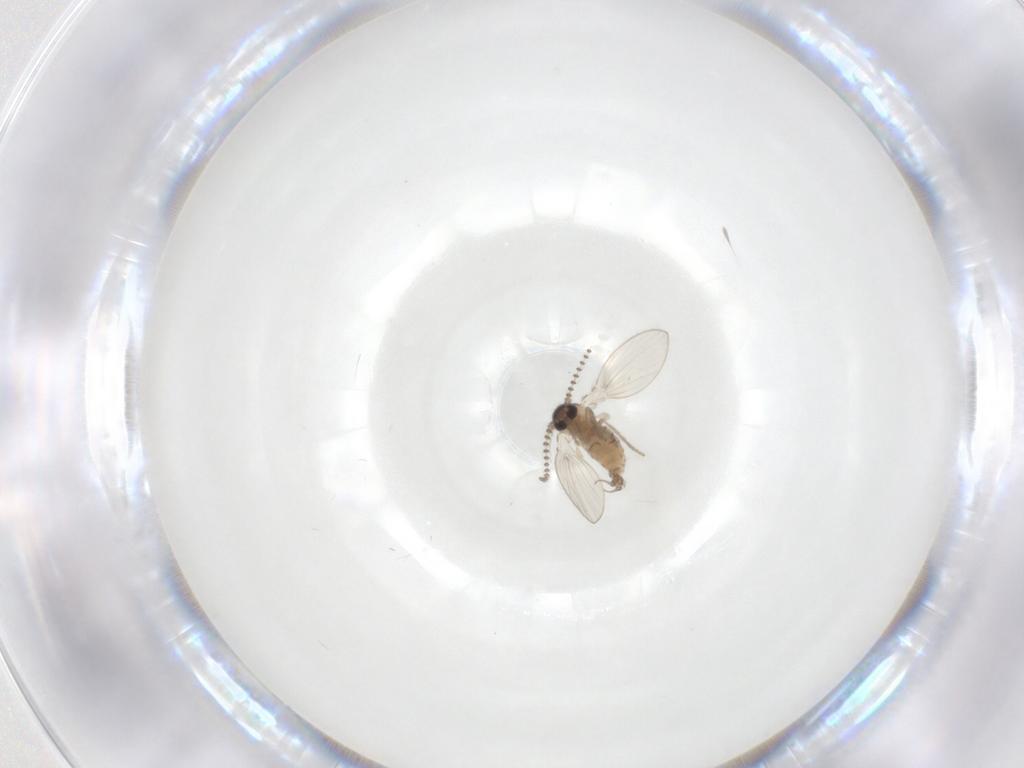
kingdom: Animalia
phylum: Arthropoda
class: Insecta
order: Diptera
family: Psychodidae
